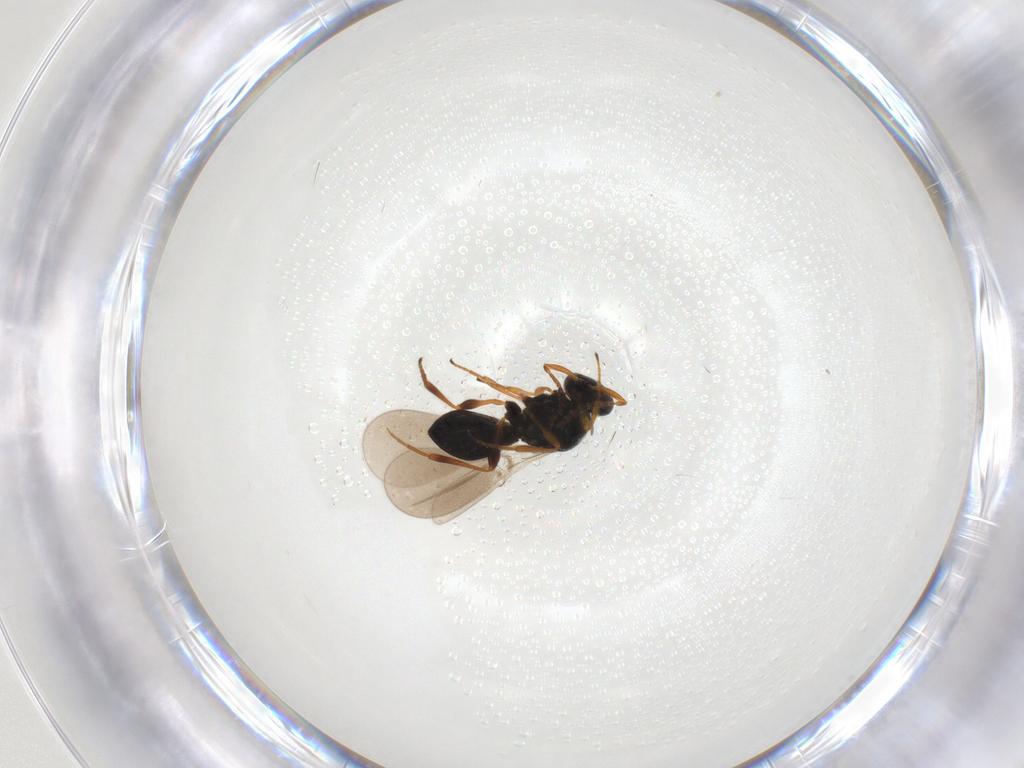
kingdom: Animalia
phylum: Arthropoda
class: Insecta
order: Hymenoptera
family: Platygastridae
